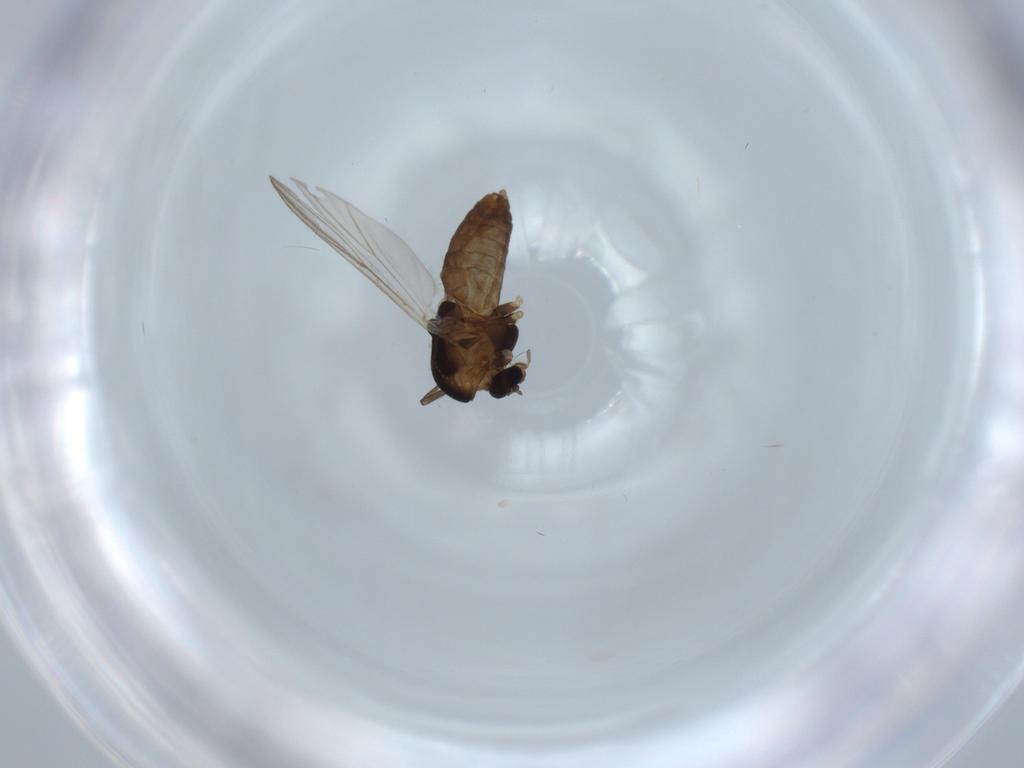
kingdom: Animalia
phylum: Arthropoda
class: Insecta
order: Diptera
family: Chironomidae
